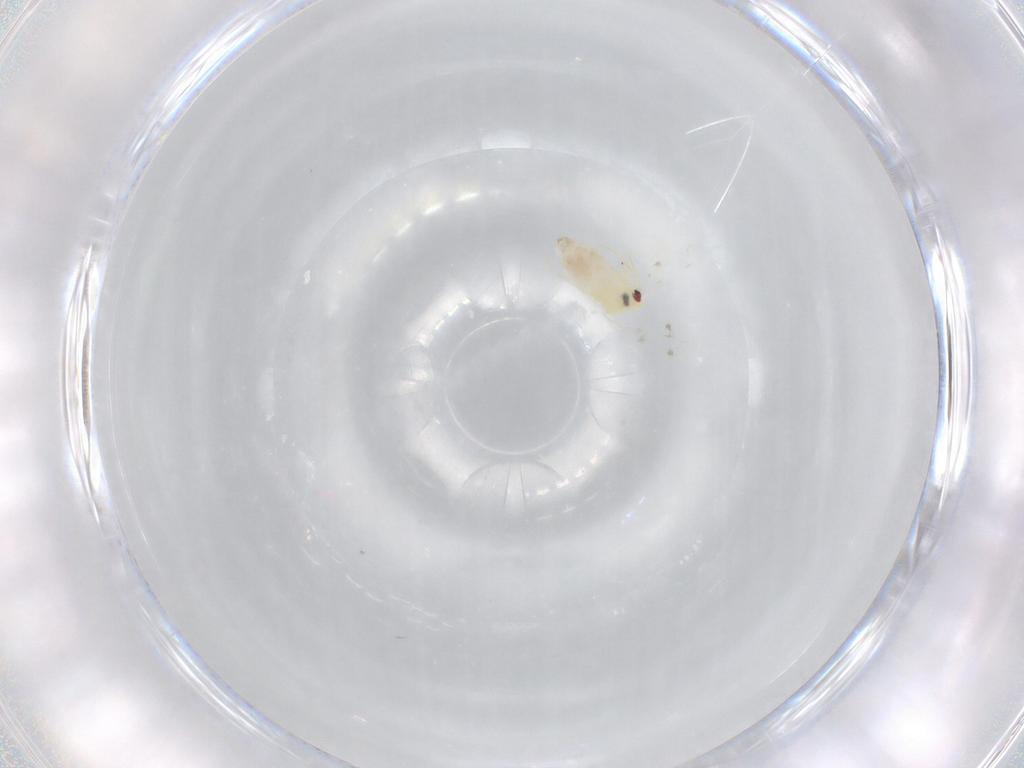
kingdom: Animalia
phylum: Arthropoda
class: Insecta
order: Hemiptera
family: Aleyrodidae
